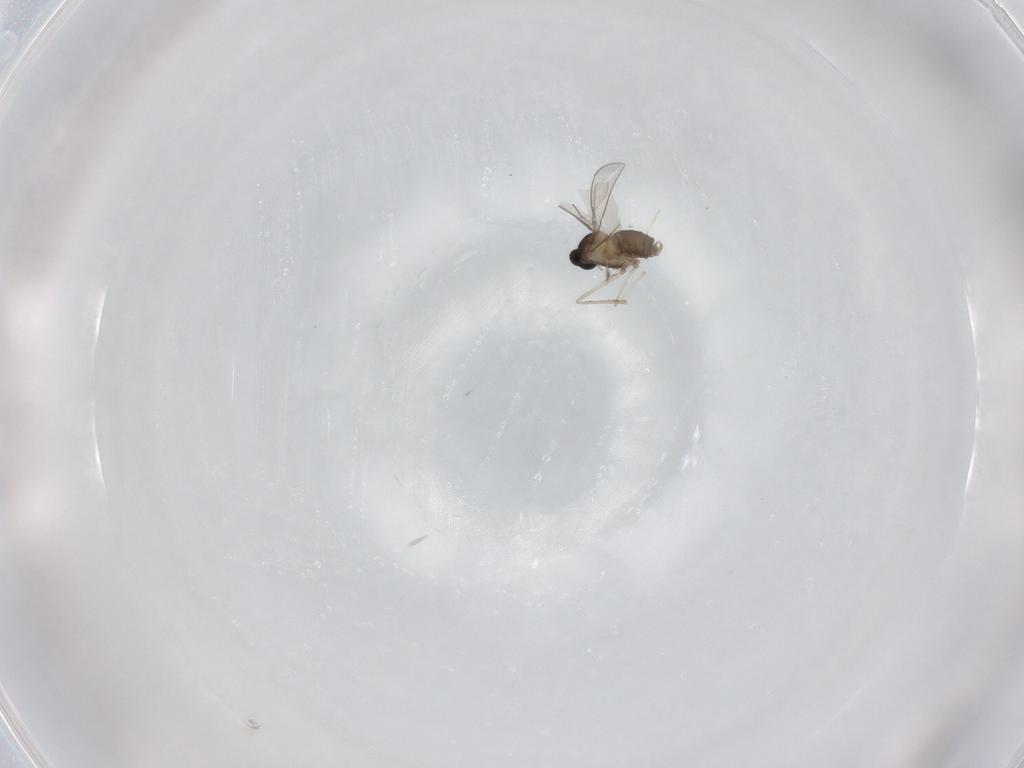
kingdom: Animalia
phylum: Arthropoda
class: Insecta
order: Diptera
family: Cecidomyiidae
